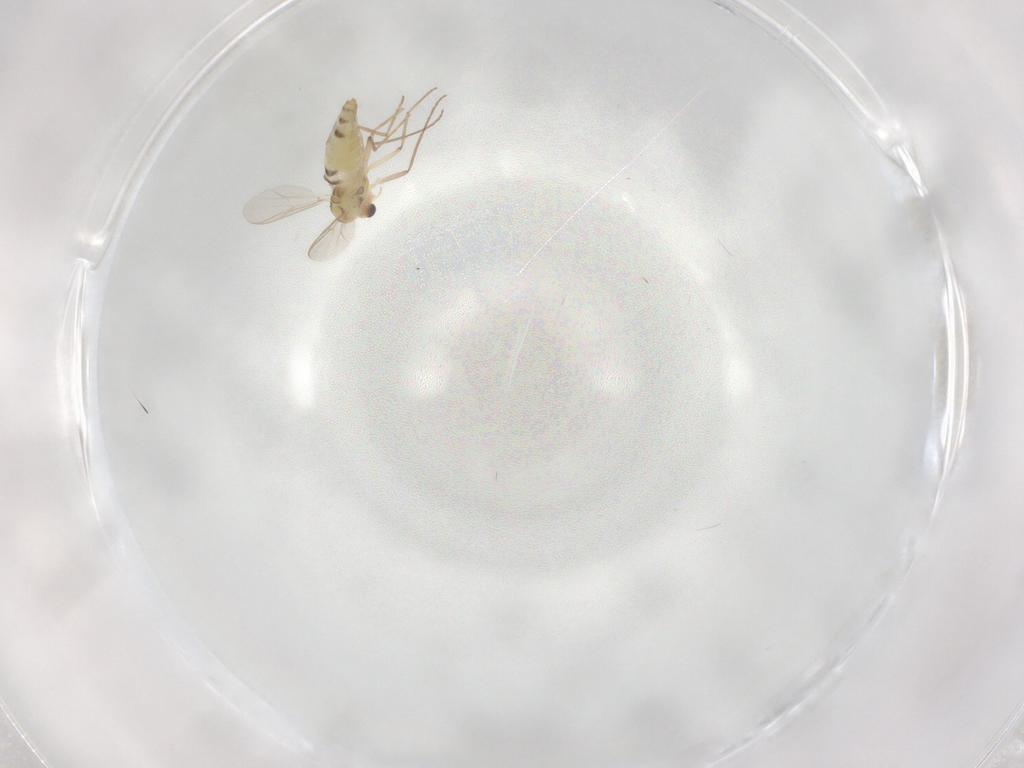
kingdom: Animalia
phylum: Arthropoda
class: Insecta
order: Diptera
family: Chironomidae
